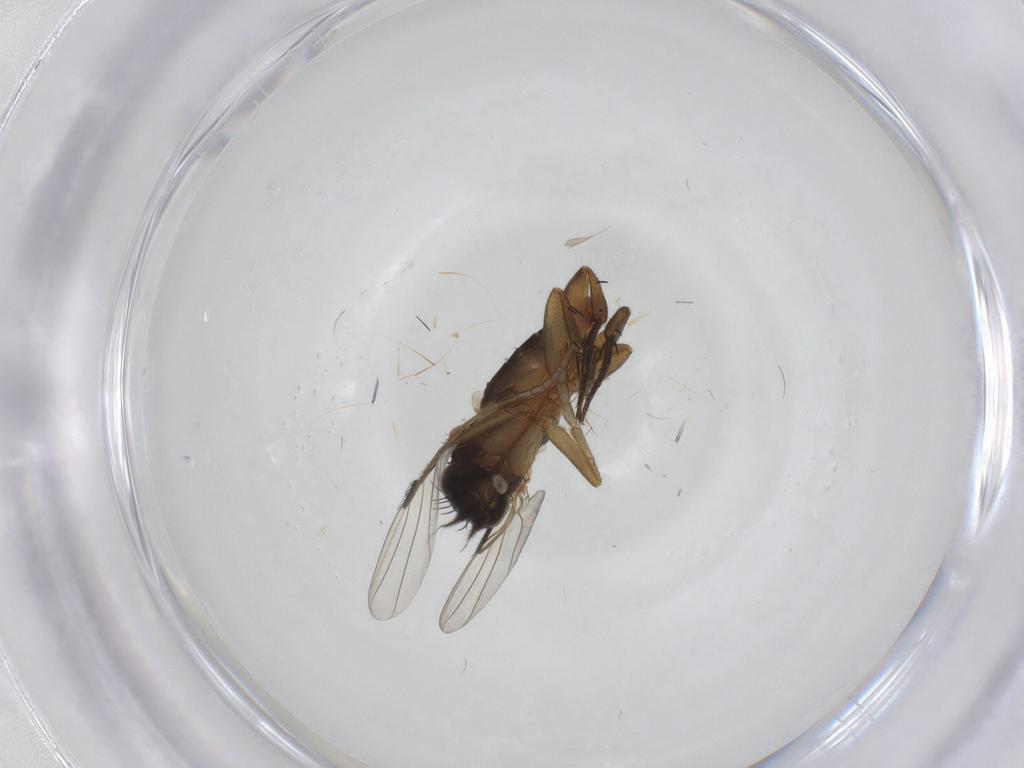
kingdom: Animalia
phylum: Arthropoda
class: Insecta
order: Diptera
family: Phoridae
